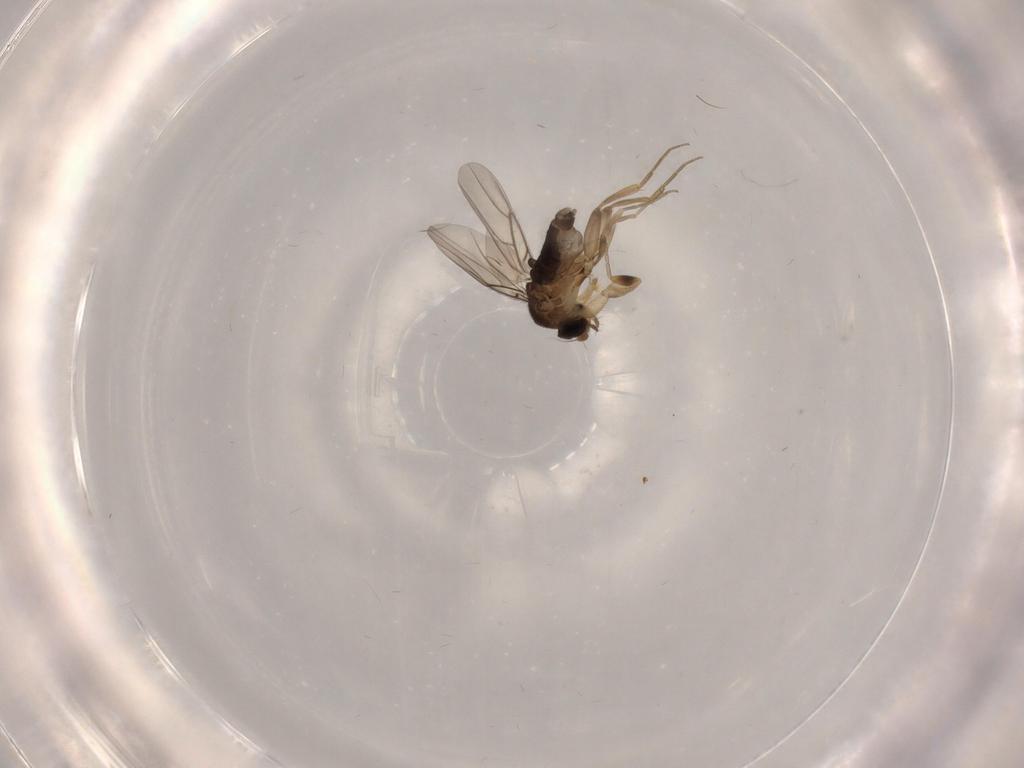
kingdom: Animalia
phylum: Arthropoda
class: Insecta
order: Diptera
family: Phoridae
